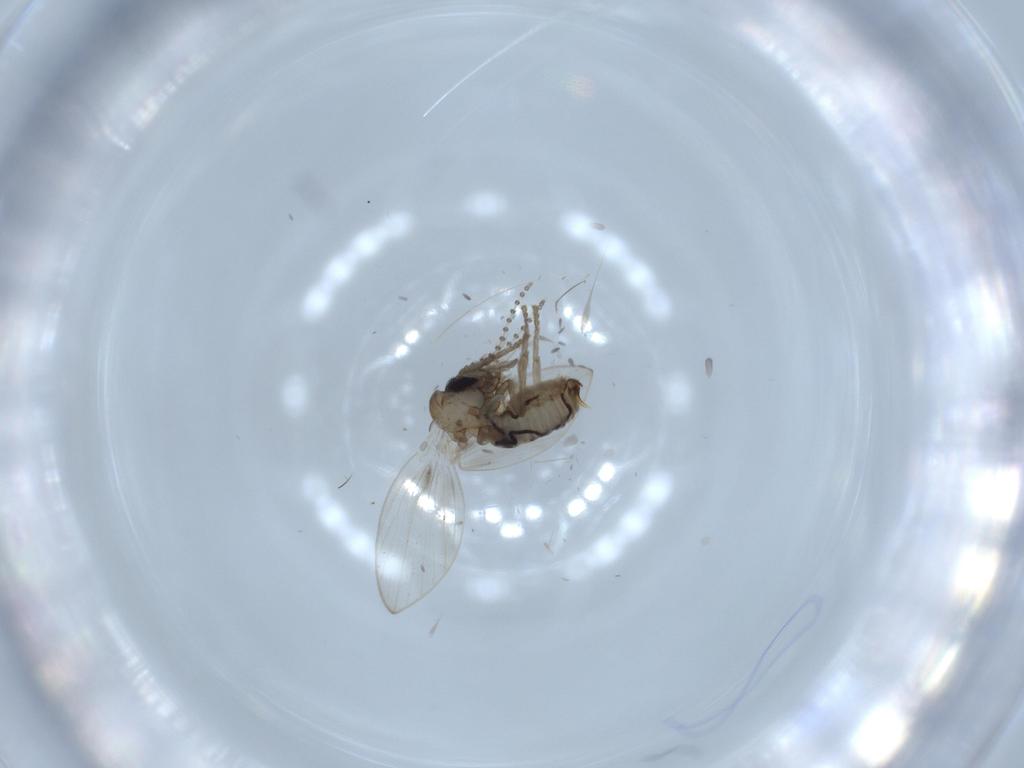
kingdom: Animalia
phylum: Arthropoda
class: Insecta
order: Diptera
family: Psychodidae
